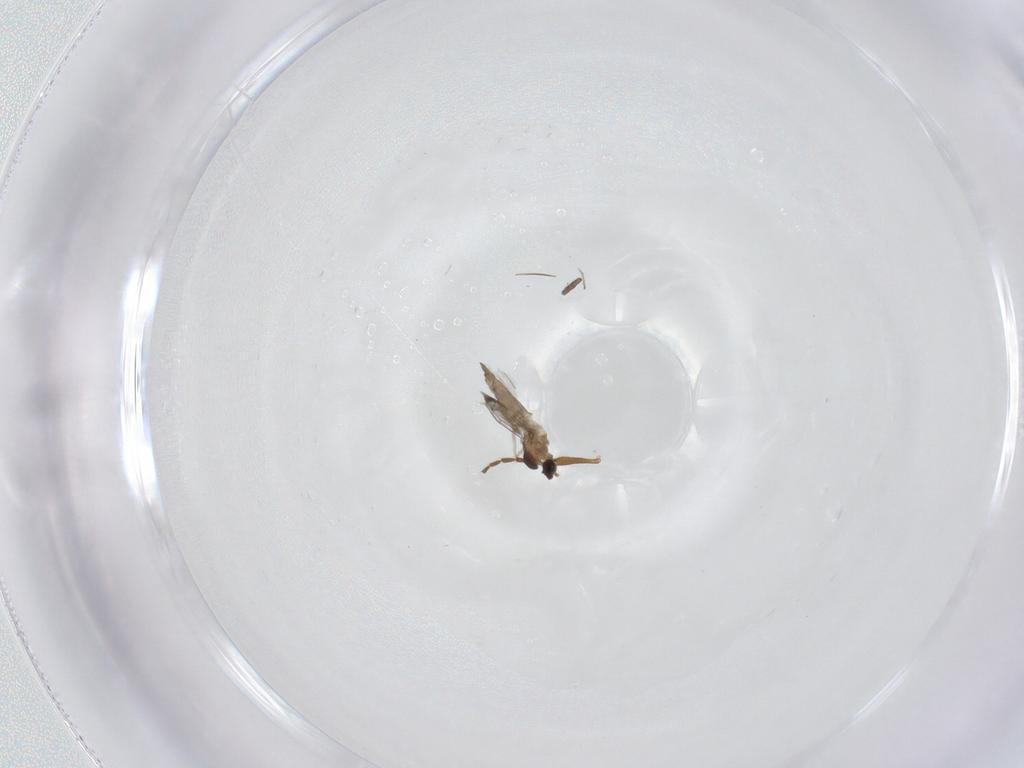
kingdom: Animalia
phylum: Arthropoda
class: Insecta
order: Diptera
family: Cecidomyiidae
